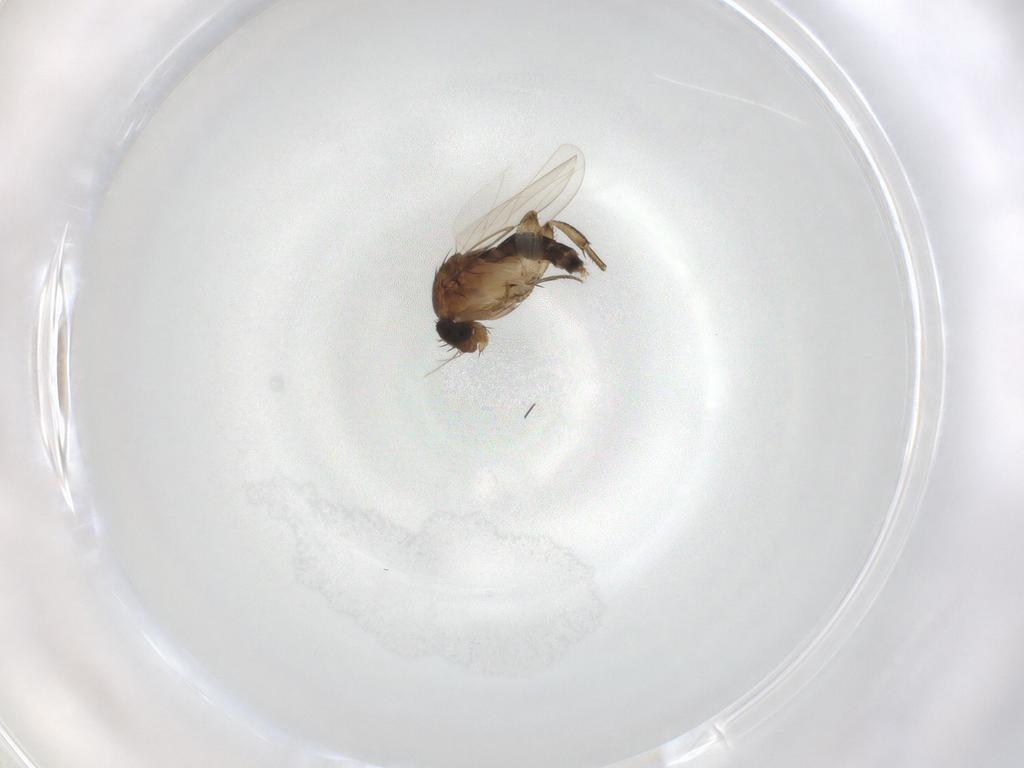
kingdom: Animalia
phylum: Arthropoda
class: Insecta
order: Diptera
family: Phoridae
